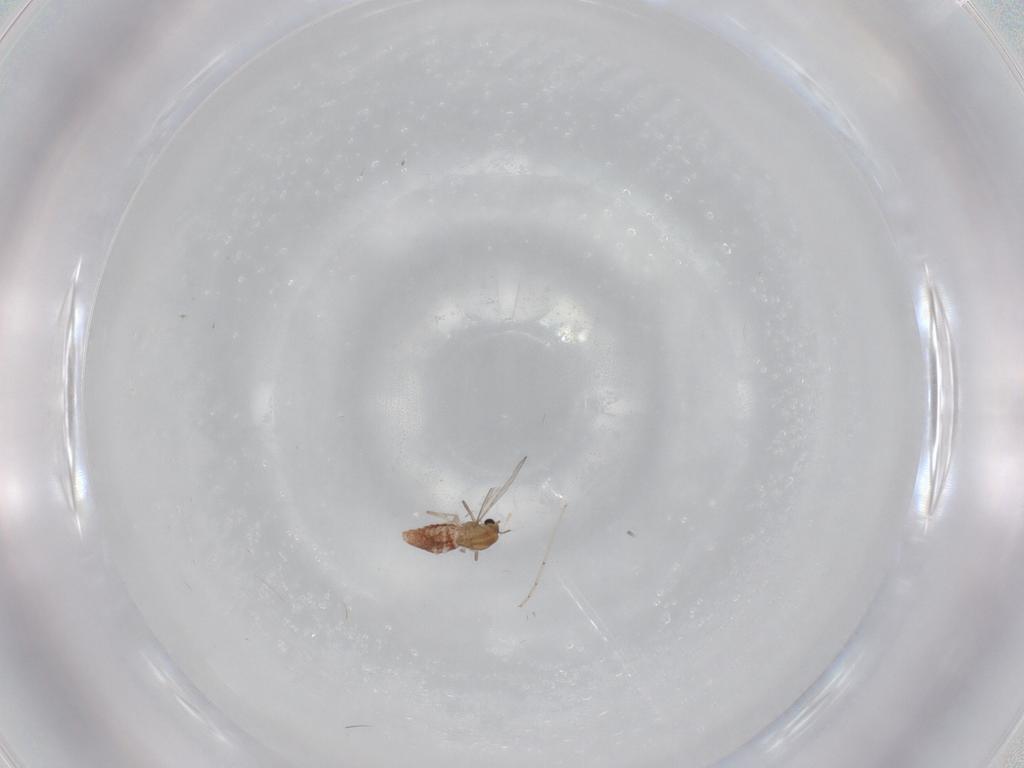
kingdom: Animalia
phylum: Arthropoda
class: Insecta
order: Diptera
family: Chironomidae
